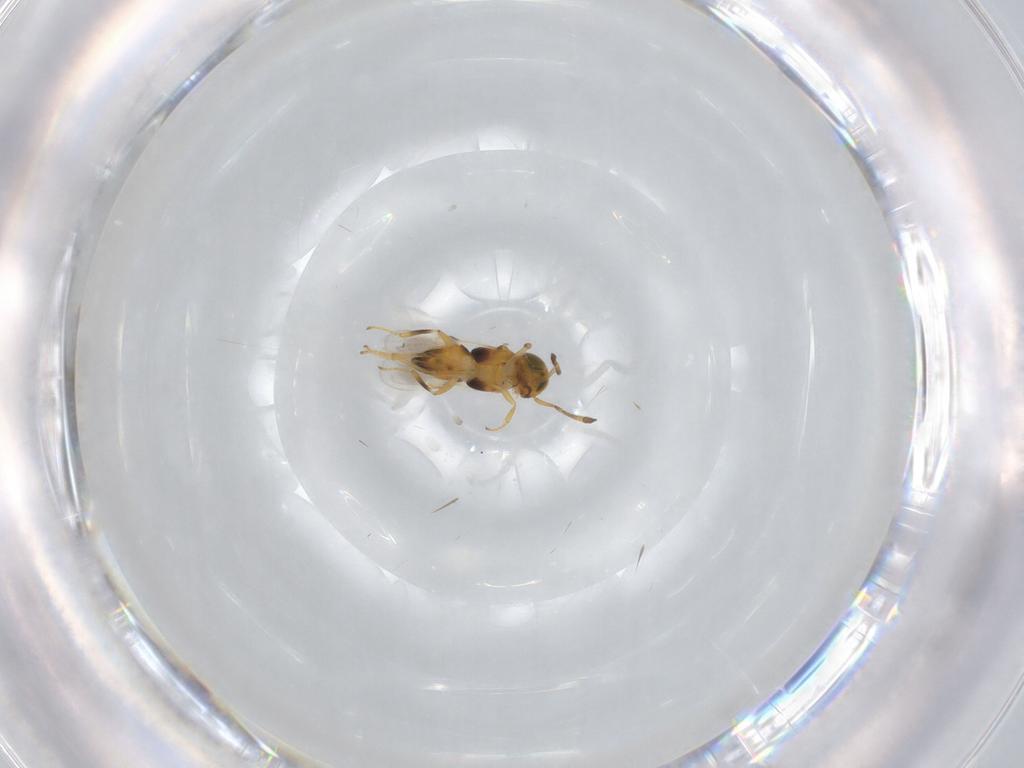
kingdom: Animalia
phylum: Arthropoda
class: Insecta
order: Hymenoptera
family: Encyrtidae
